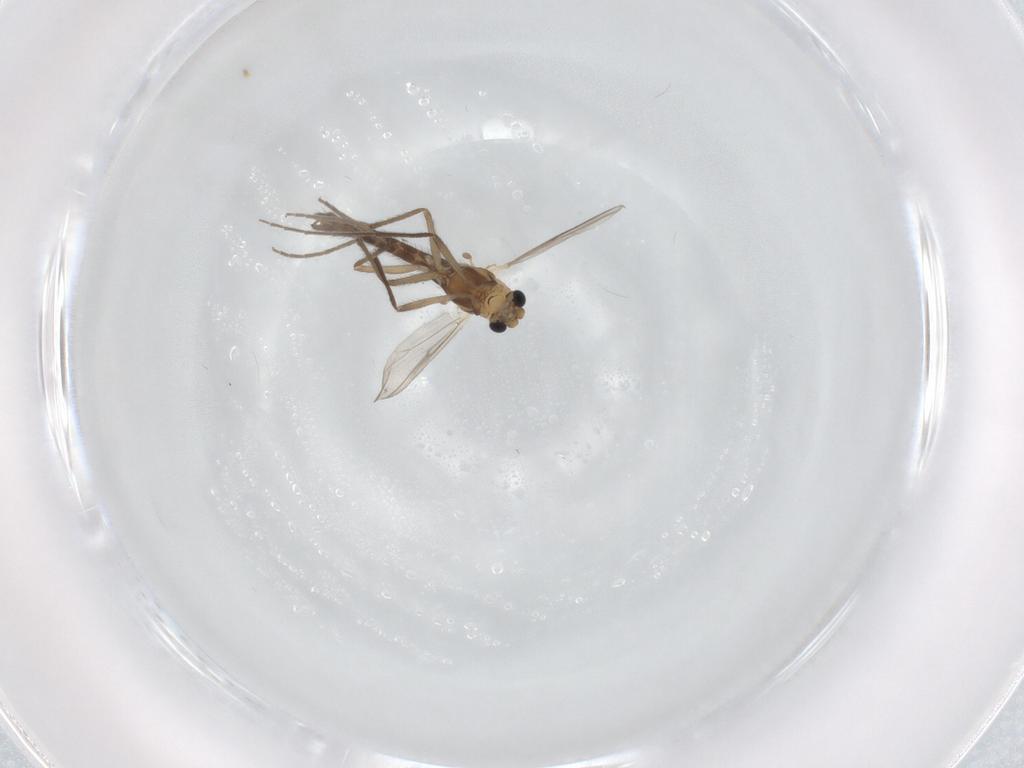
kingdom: Animalia
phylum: Arthropoda
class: Insecta
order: Diptera
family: Chironomidae
